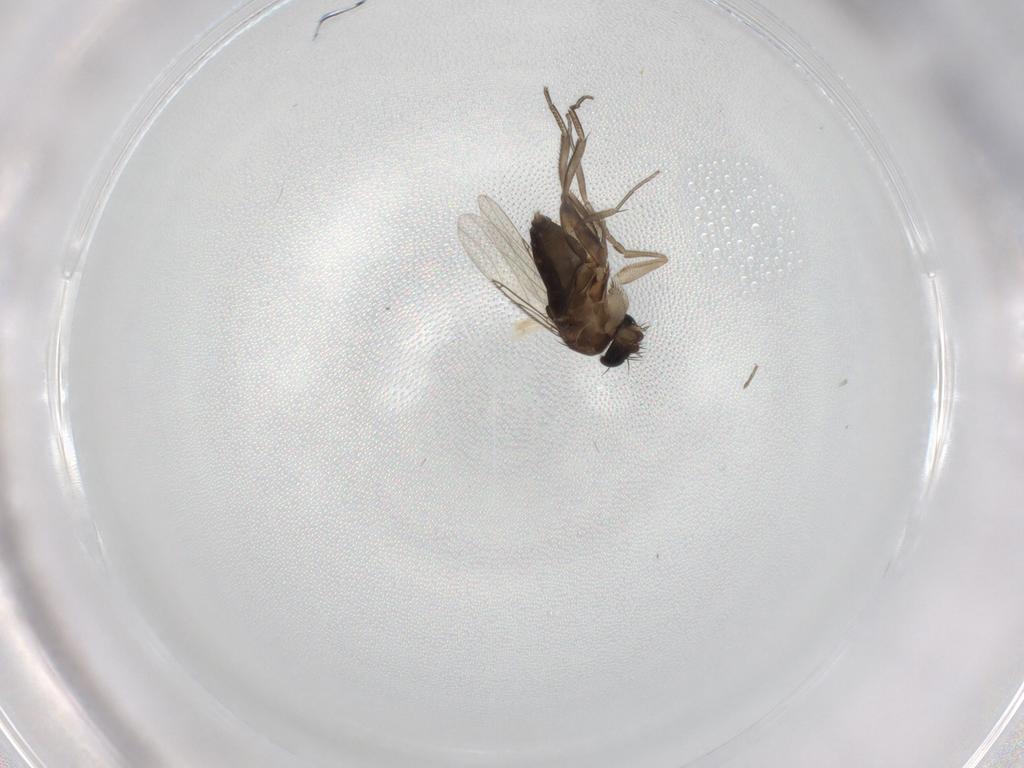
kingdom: Animalia
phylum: Arthropoda
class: Insecta
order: Diptera
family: Phoridae
